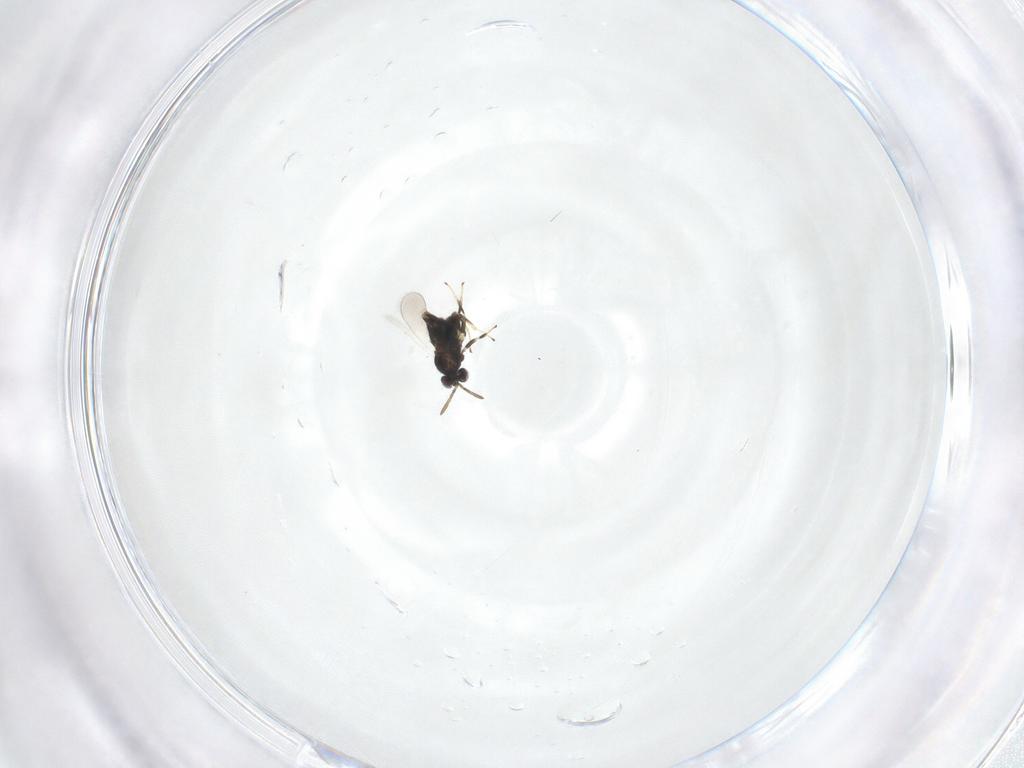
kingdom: Animalia
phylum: Arthropoda
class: Insecta
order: Hymenoptera
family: Aphelinidae
